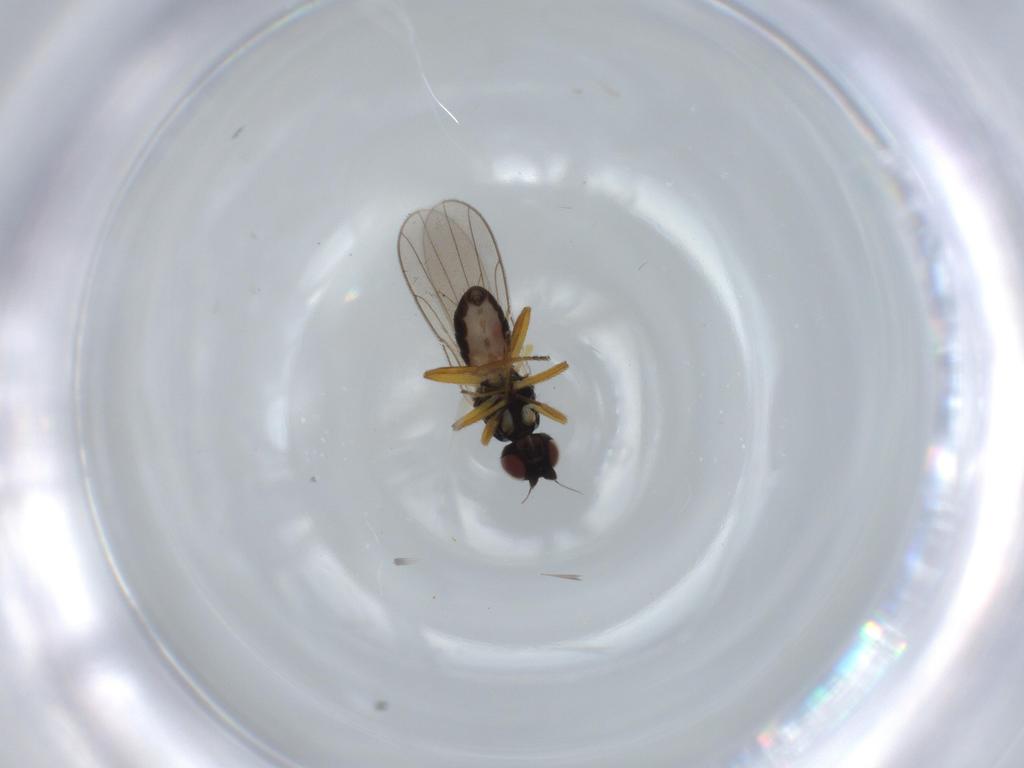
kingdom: Animalia
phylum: Arthropoda
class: Insecta
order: Diptera
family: Chloropidae
